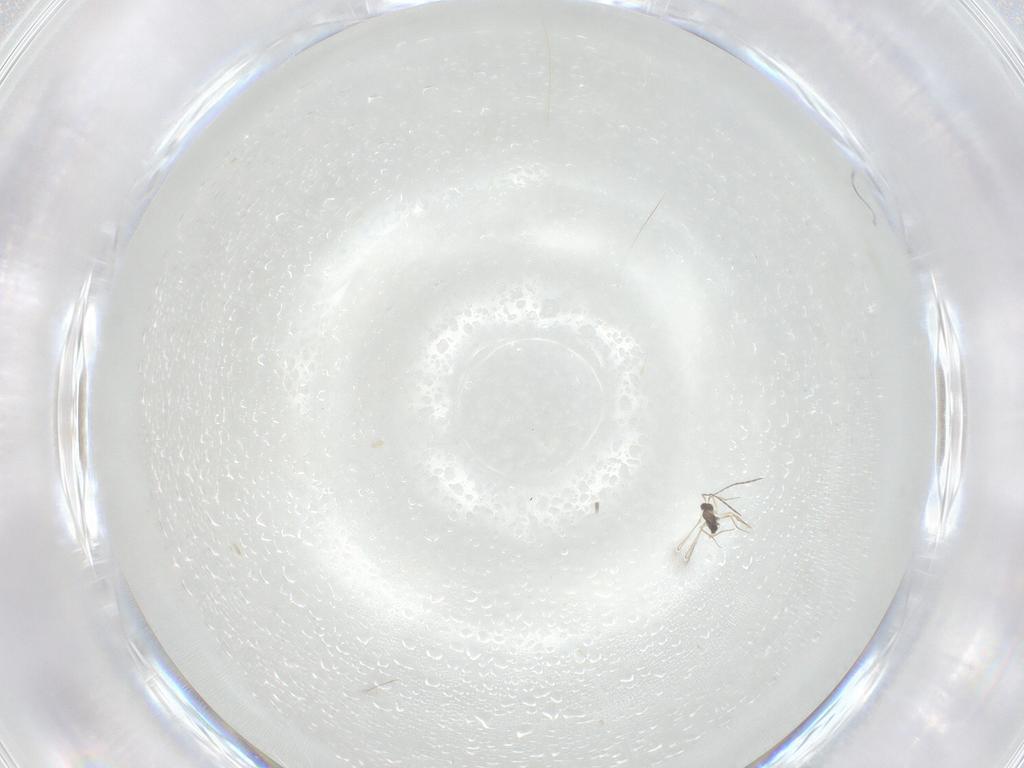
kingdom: Animalia
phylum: Arthropoda
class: Insecta
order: Hymenoptera
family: Mymaridae
